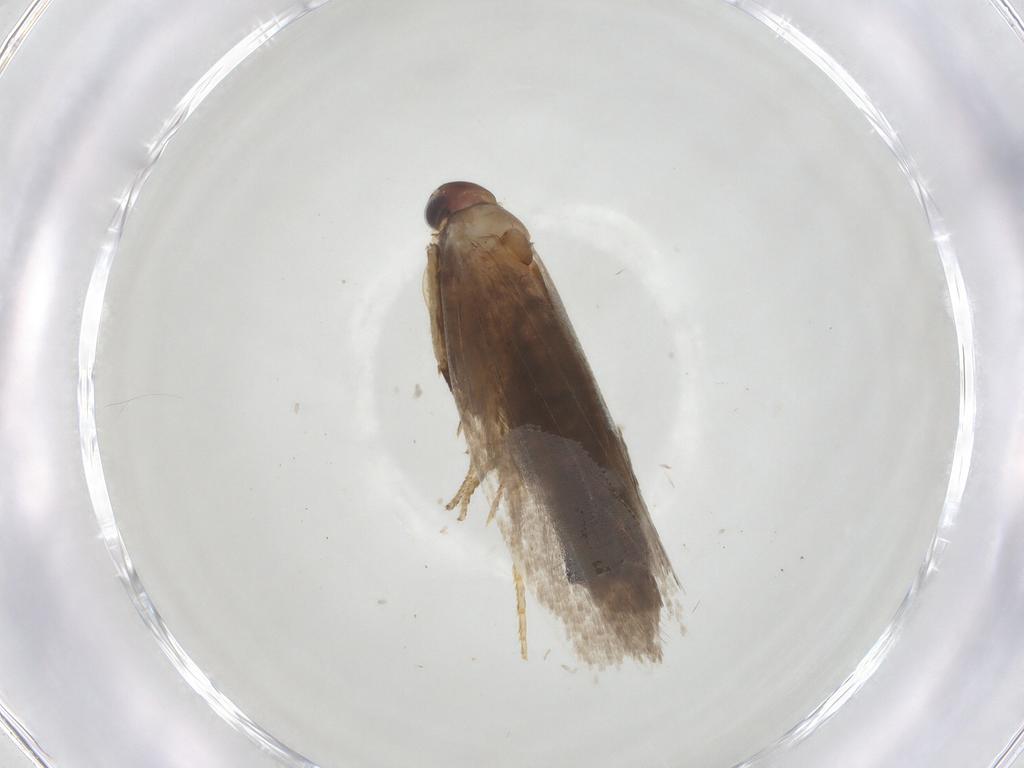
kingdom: Animalia
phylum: Arthropoda
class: Insecta
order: Lepidoptera
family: Gelechiidae
